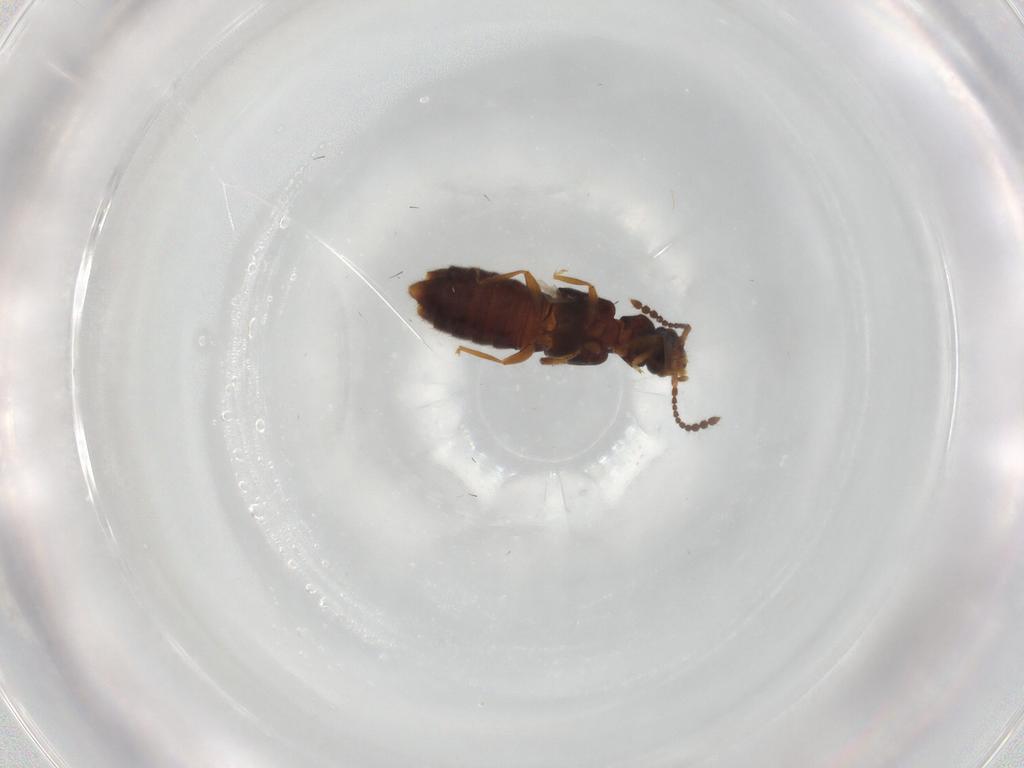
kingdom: Animalia
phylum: Arthropoda
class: Insecta
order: Coleoptera
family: Staphylinidae
